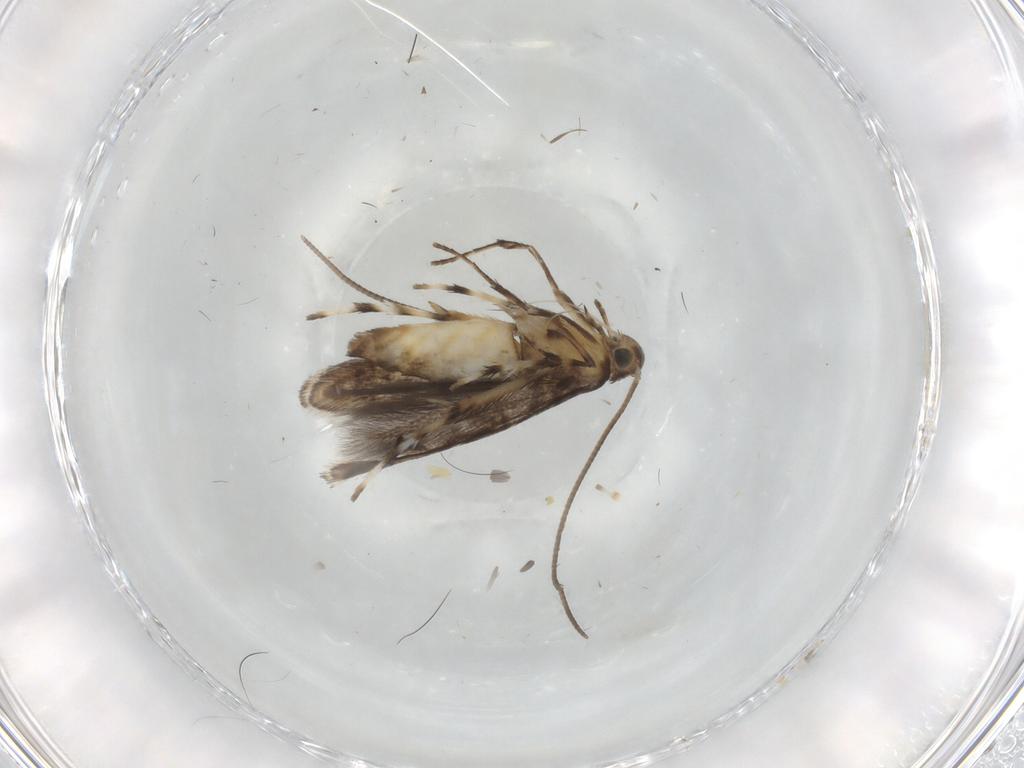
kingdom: Animalia
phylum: Arthropoda
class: Insecta
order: Lepidoptera
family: Gracillariidae
